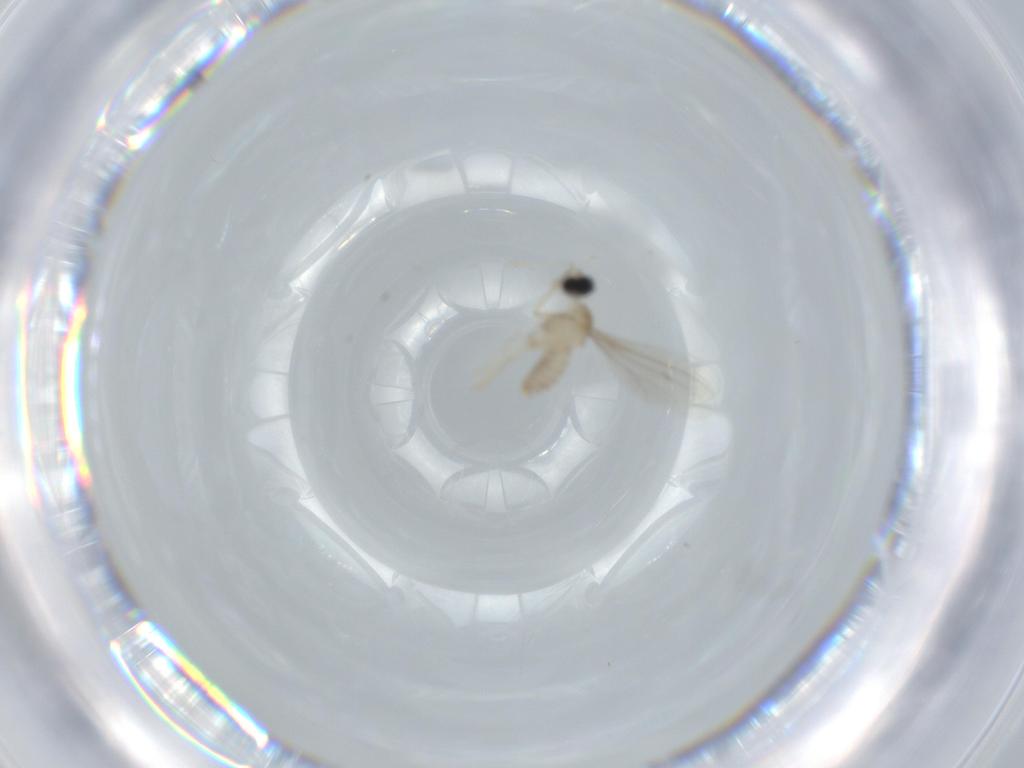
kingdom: Animalia
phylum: Arthropoda
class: Insecta
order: Diptera
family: Cecidomyiidae
